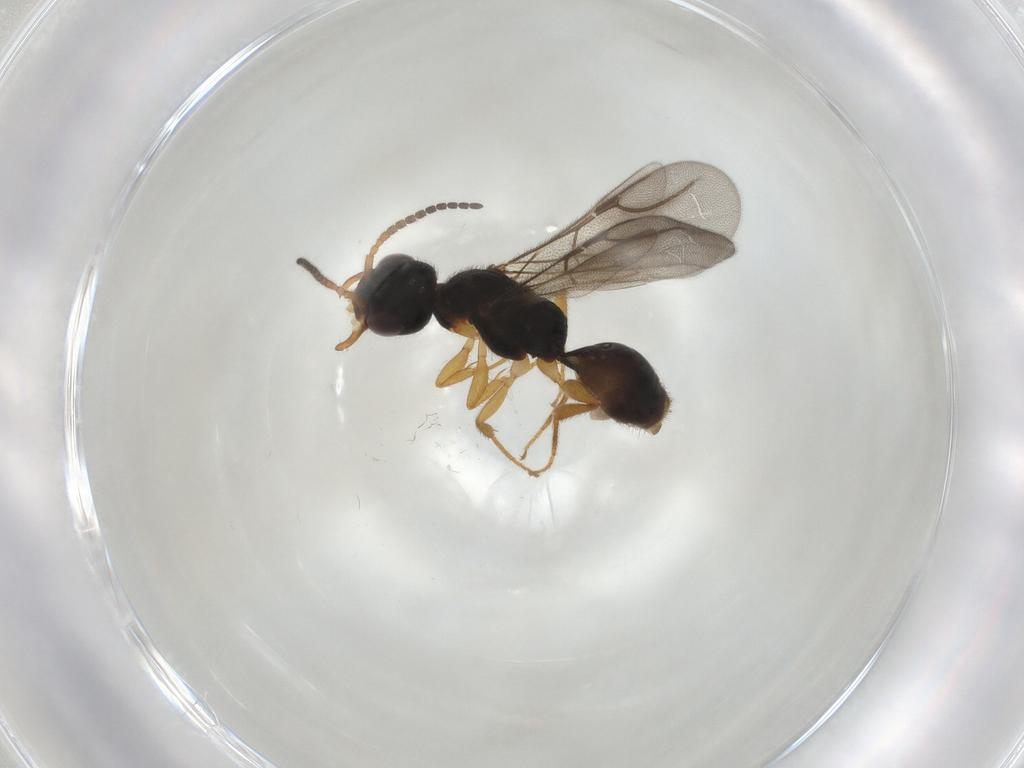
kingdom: Animalia
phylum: Arthropoda
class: Insecta
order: Hymenoptera
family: Bethylidae
